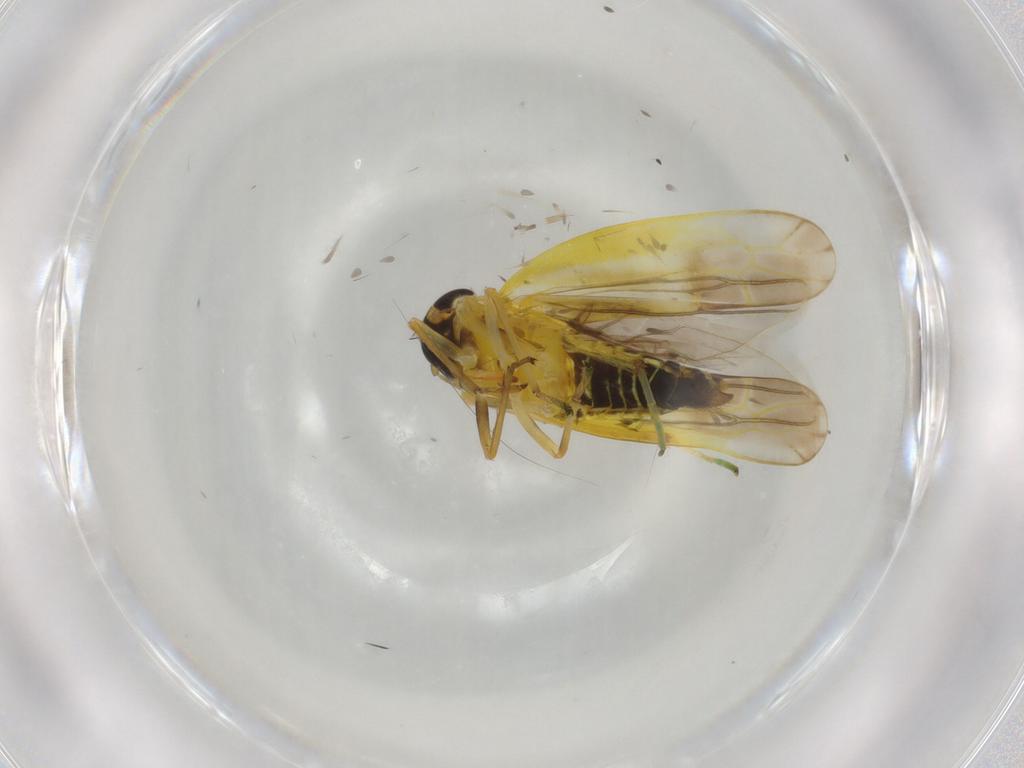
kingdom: Animalia
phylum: Arthropoda
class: Insecta
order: Hemiptera
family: Cicadellidae
